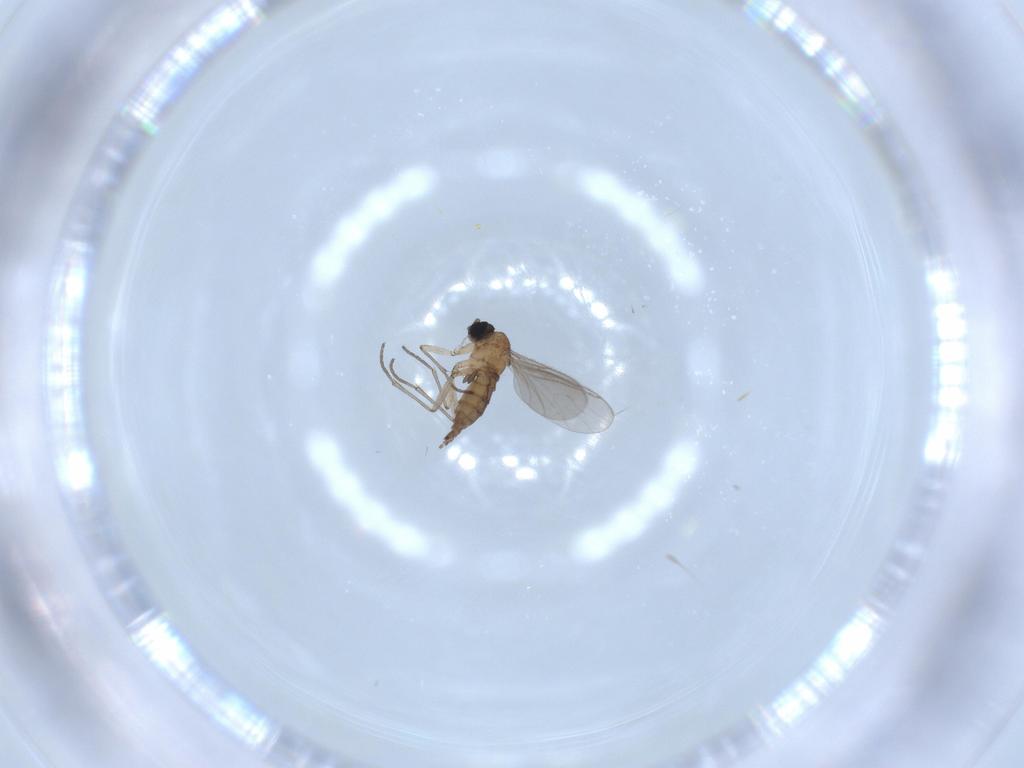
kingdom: Animalia
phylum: Arthropoda
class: Insecta
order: Diptera
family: Sciaridae
